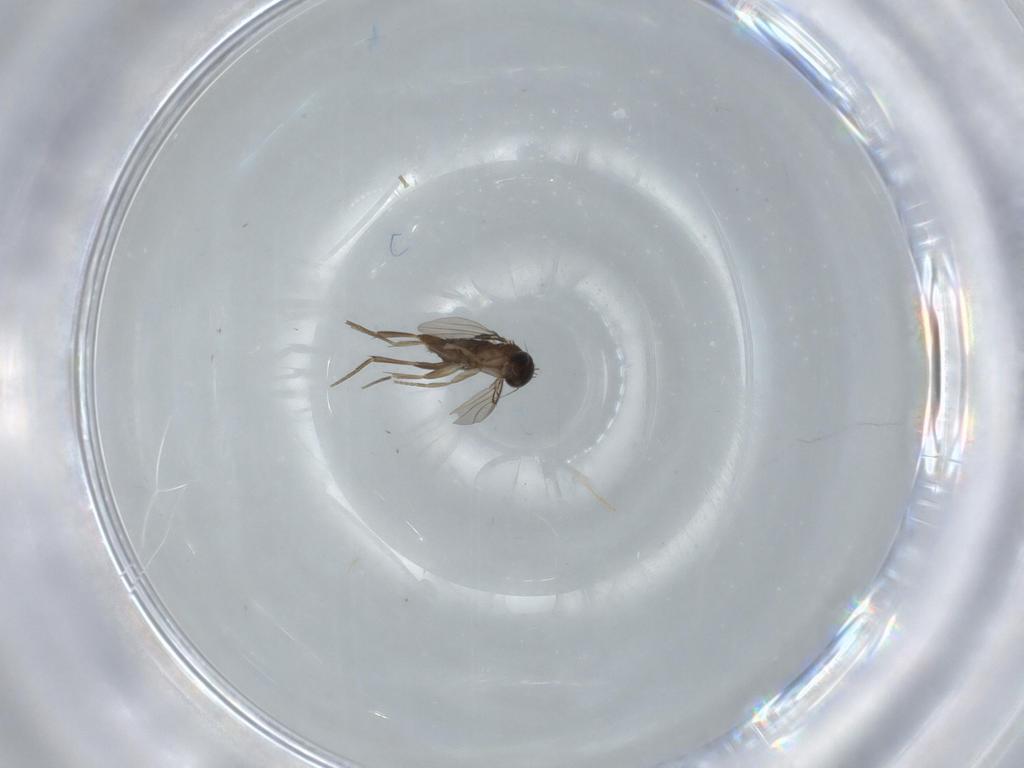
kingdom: Animalia
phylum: Arthropoda
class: Insecta
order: Diptera
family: Phoridae
